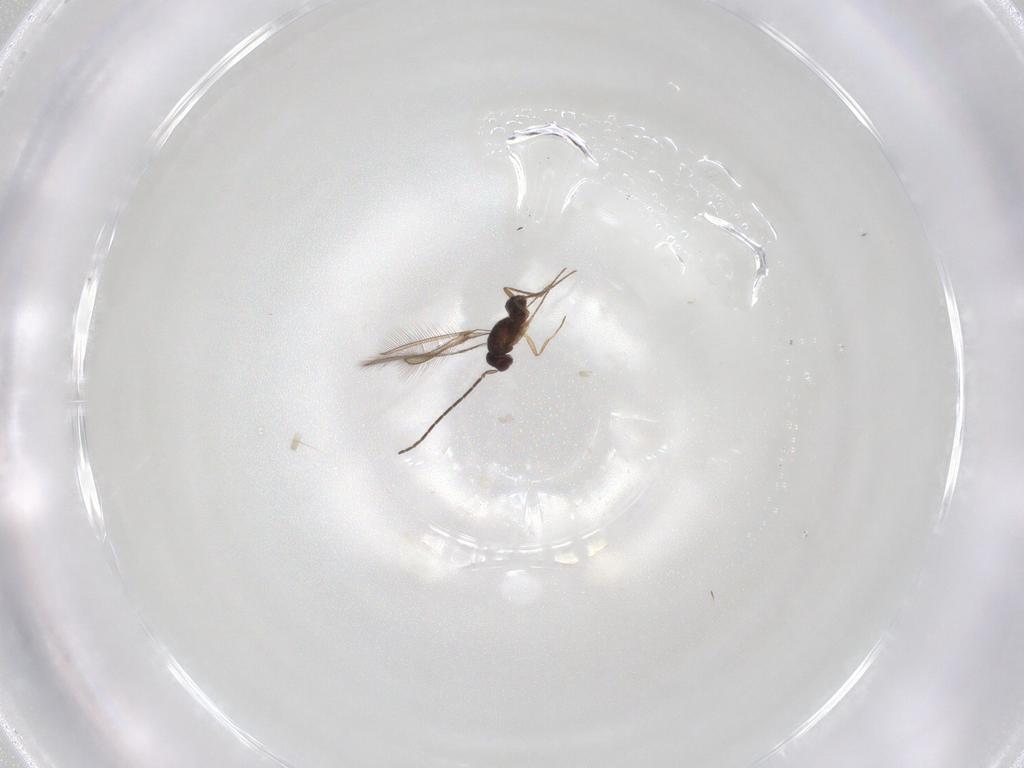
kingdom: Animalia
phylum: Arthropoda
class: Insecta
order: Hymenoptera
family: Mymaridae
